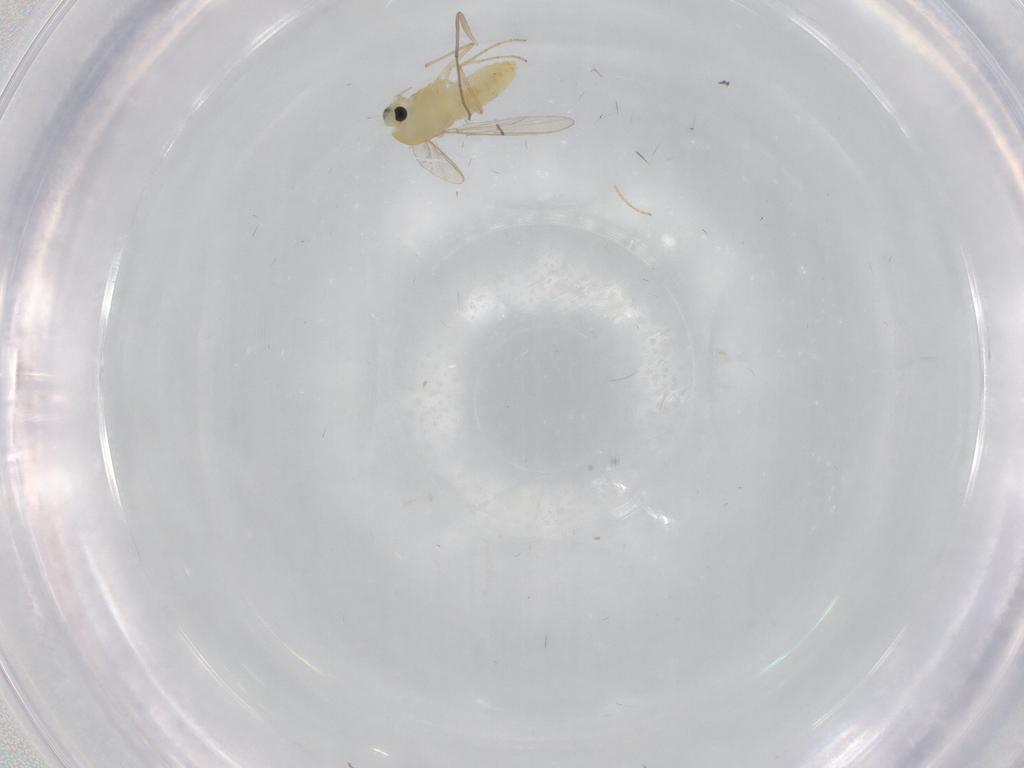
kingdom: Animalia
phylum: Arthropoda
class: Insecta
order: Diptera
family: Chironomidae
